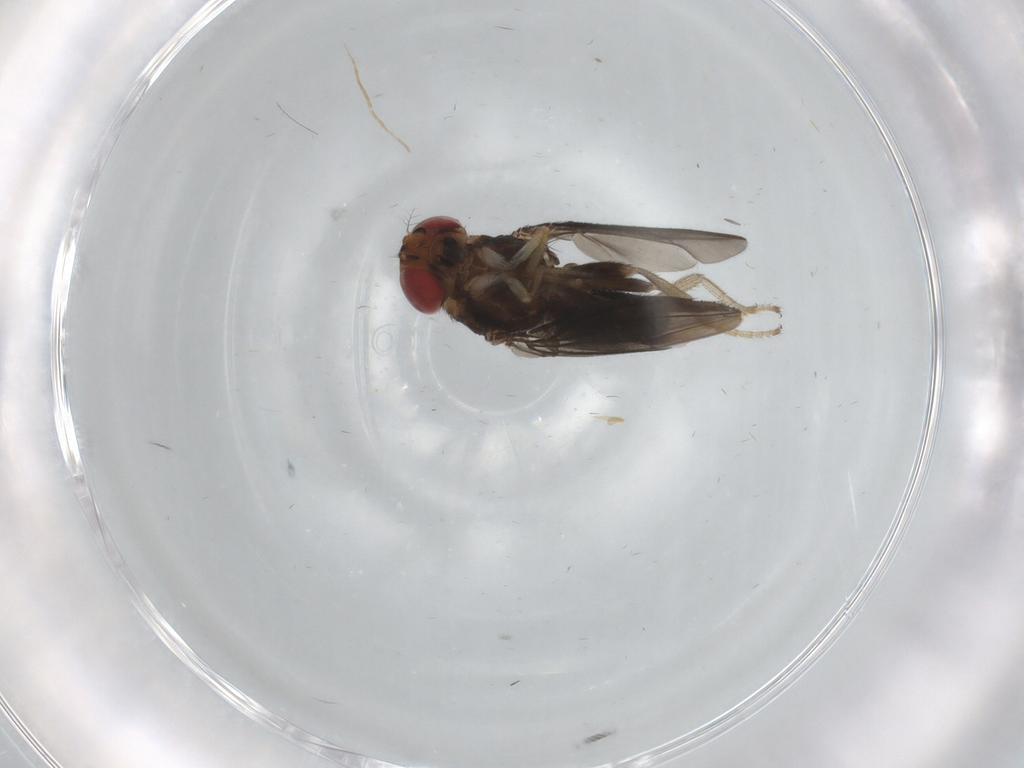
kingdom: Animalia
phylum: Arthropoda
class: Insecta
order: Diptera
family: Drosophilidae
